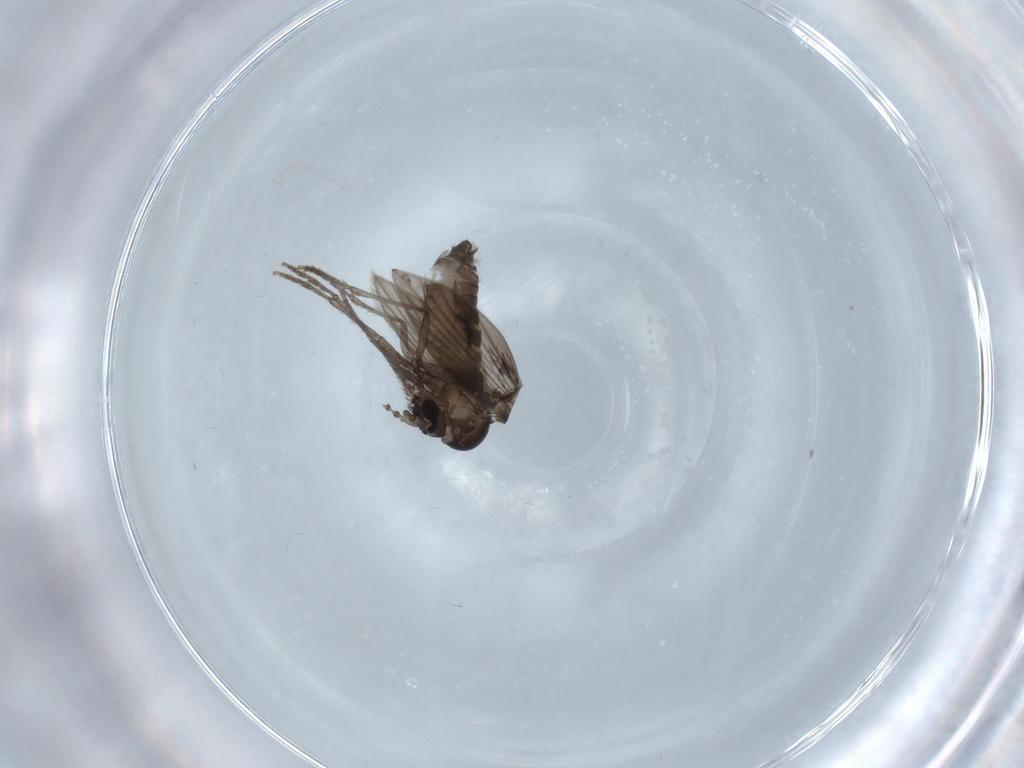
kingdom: Animalia
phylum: Arthropoda
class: Insecta
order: Diptera
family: Psychodidae
